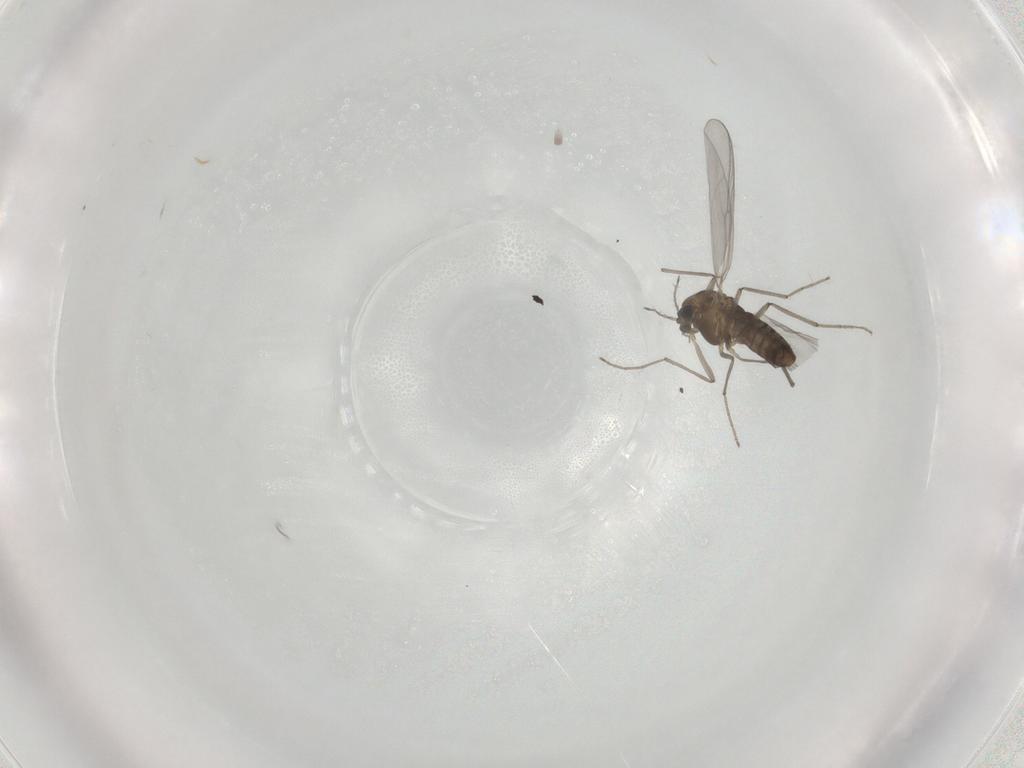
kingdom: Animalia
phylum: Arthropoda
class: Insecta
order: Diptera
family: Chironomidae
